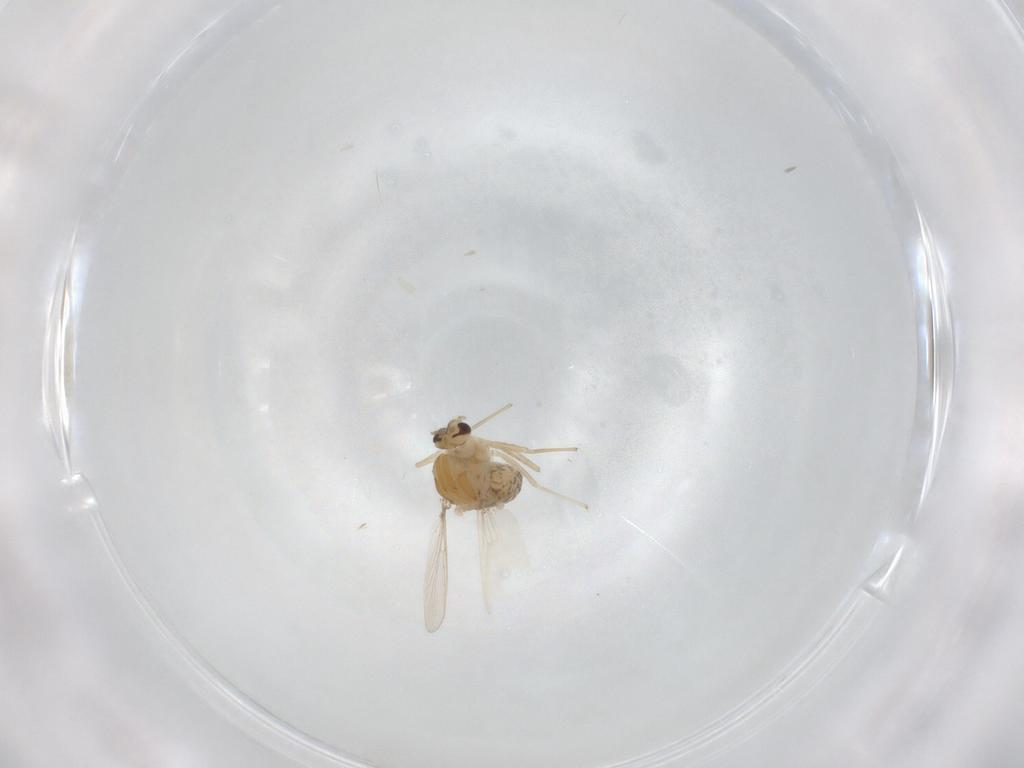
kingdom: Animalia
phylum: Arthropoda
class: Insecta
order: Diptera
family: Chironomidae
